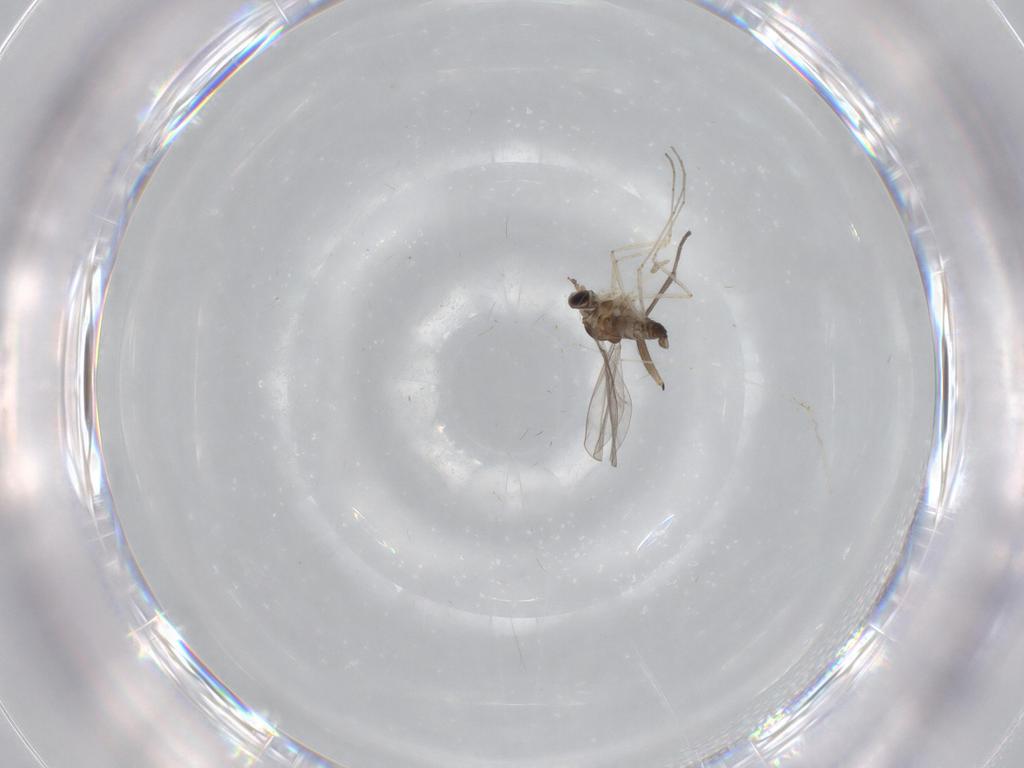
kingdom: Animalia
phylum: Arthropoda
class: Insecta
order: Diptera
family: Cecidomyiidae
